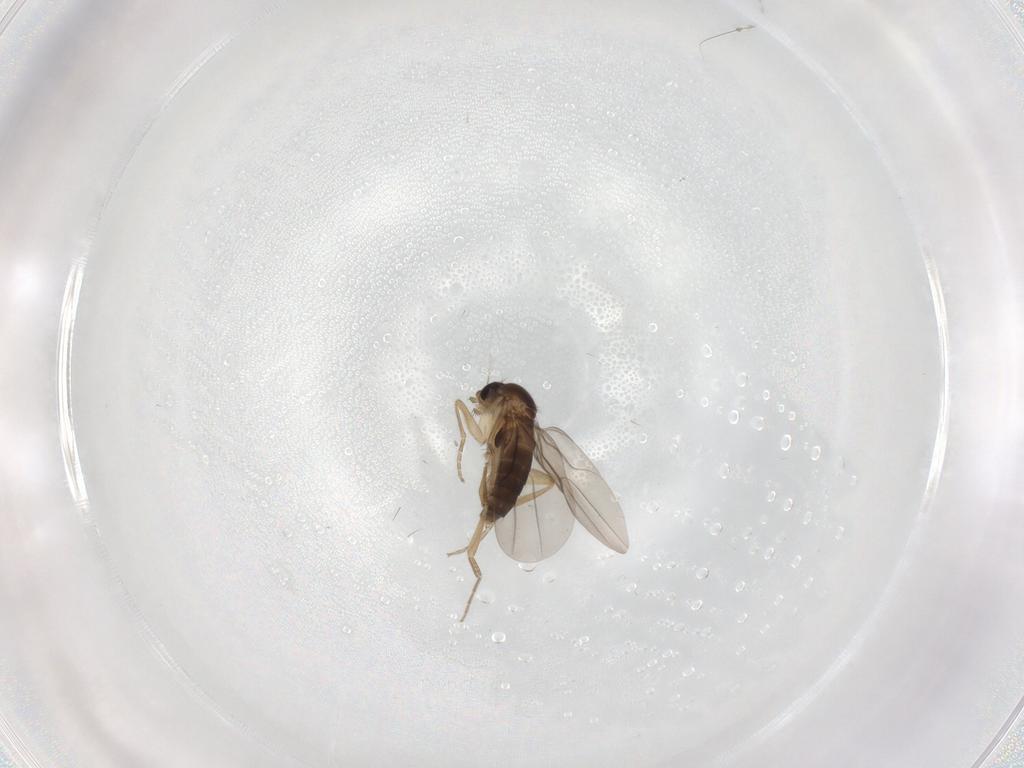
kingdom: Animalia
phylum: Arthropoda
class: Insecta
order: Diptera
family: Phoridae
